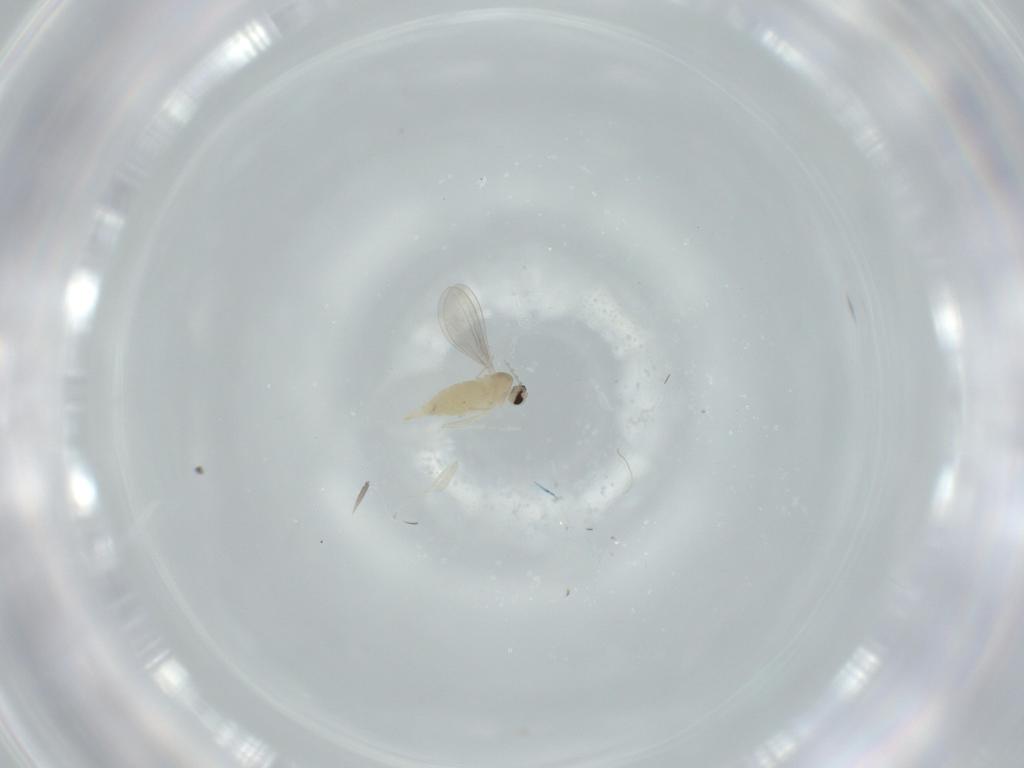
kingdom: Animalia
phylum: Arthropoda
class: Insecta
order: Diptera
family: Cecidomyiidae
